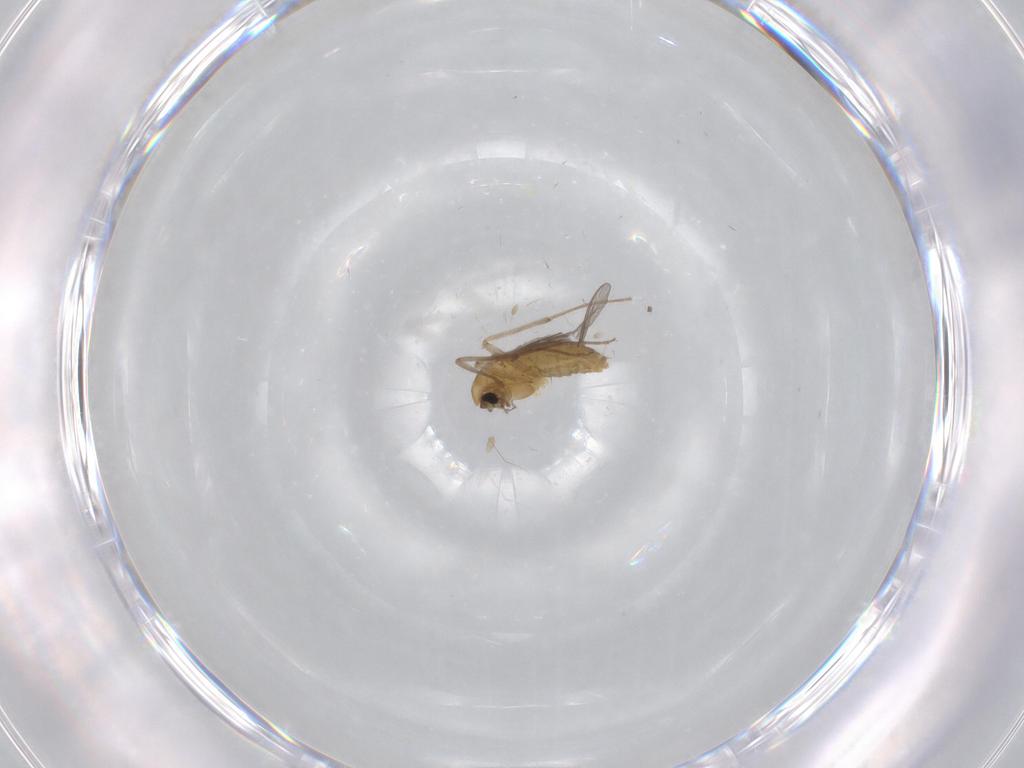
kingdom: Animalia
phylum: Arthropoda
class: Insecta
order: Diptera
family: Chironomidae
